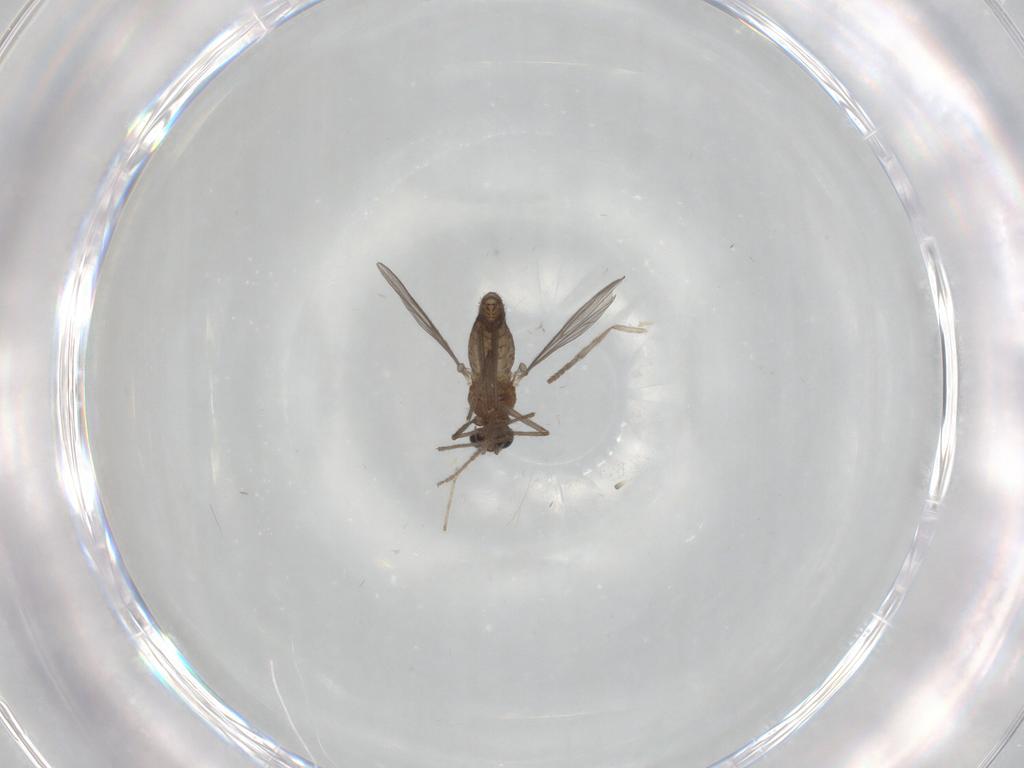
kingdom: Animalia
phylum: Arthropoda
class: Insecta
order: Diptera
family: Chironomidae
